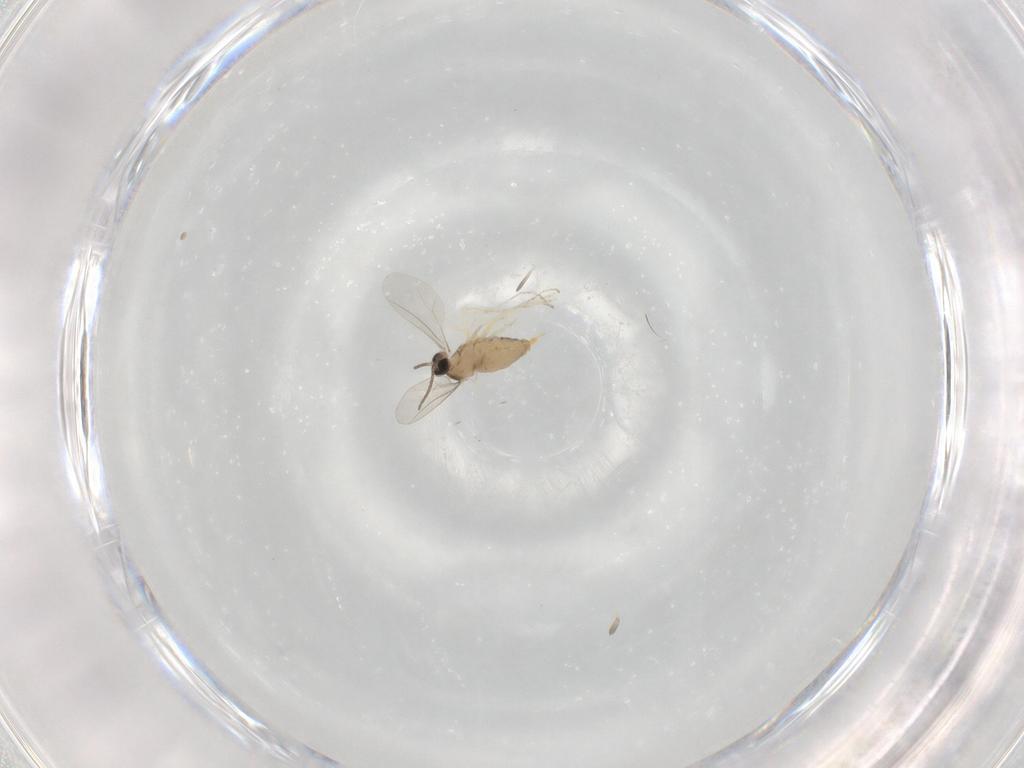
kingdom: Animalia
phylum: Arthropoda
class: Insecta
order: Diptera
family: Cecidomyiidae
